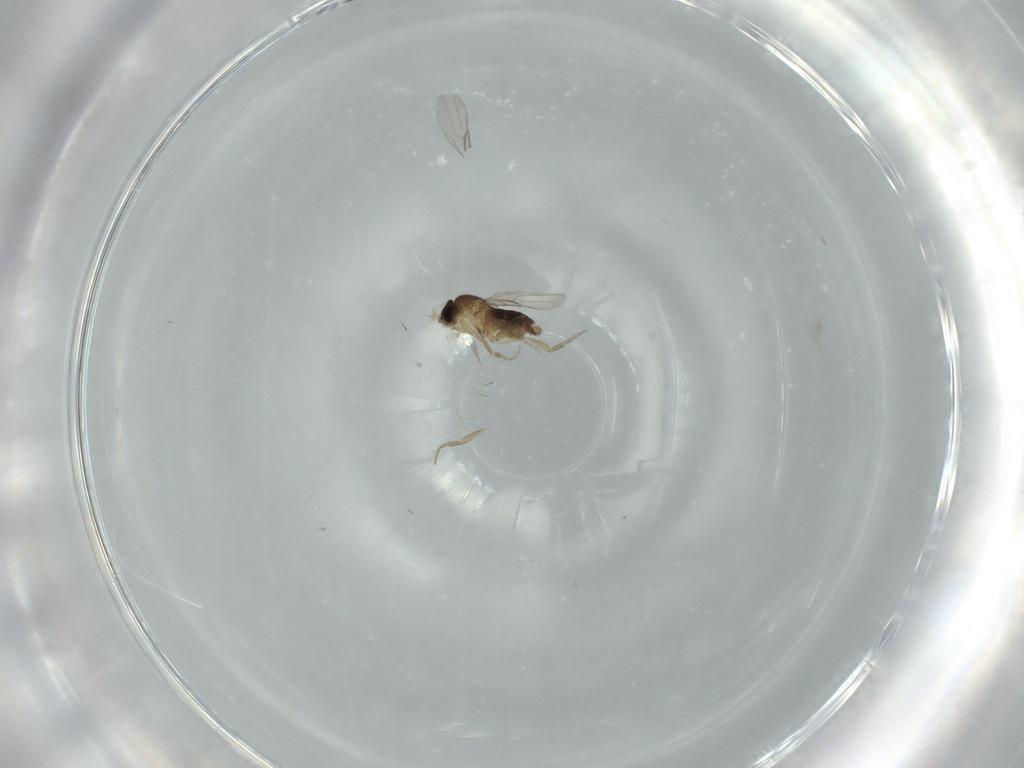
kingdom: Animalia
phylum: Arthropoda
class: Insecta
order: Diptera
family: Phoridae
